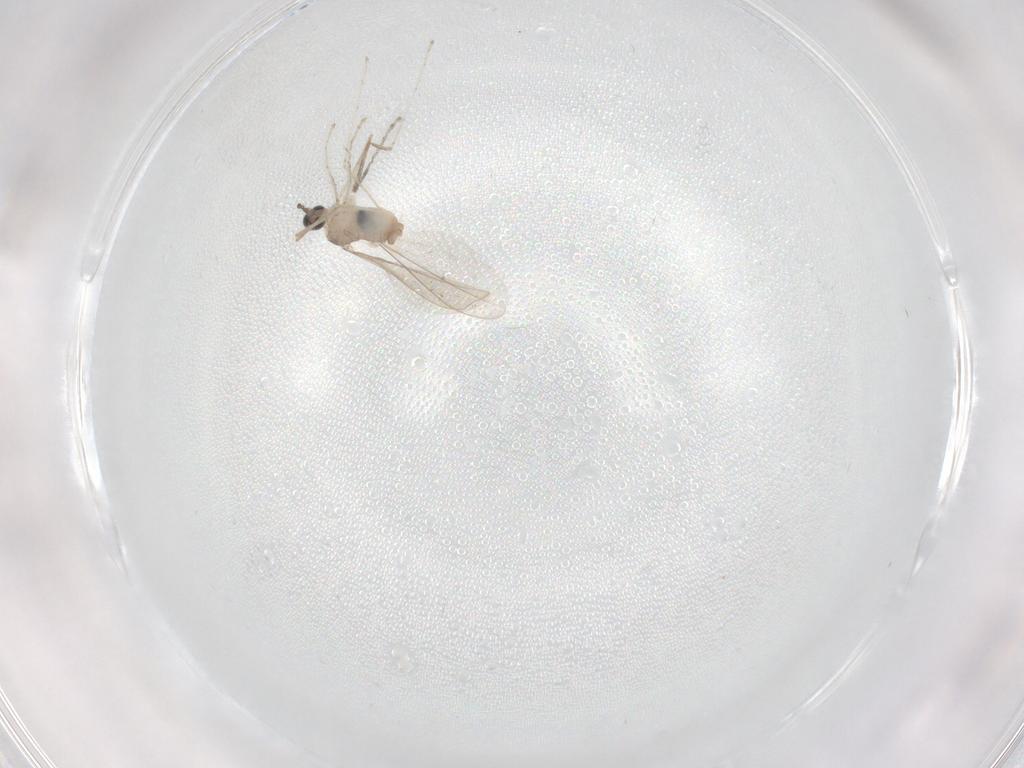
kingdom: Animalia
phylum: Arthropoda
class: Insecta
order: Diptera
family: Cecidomyiidae
